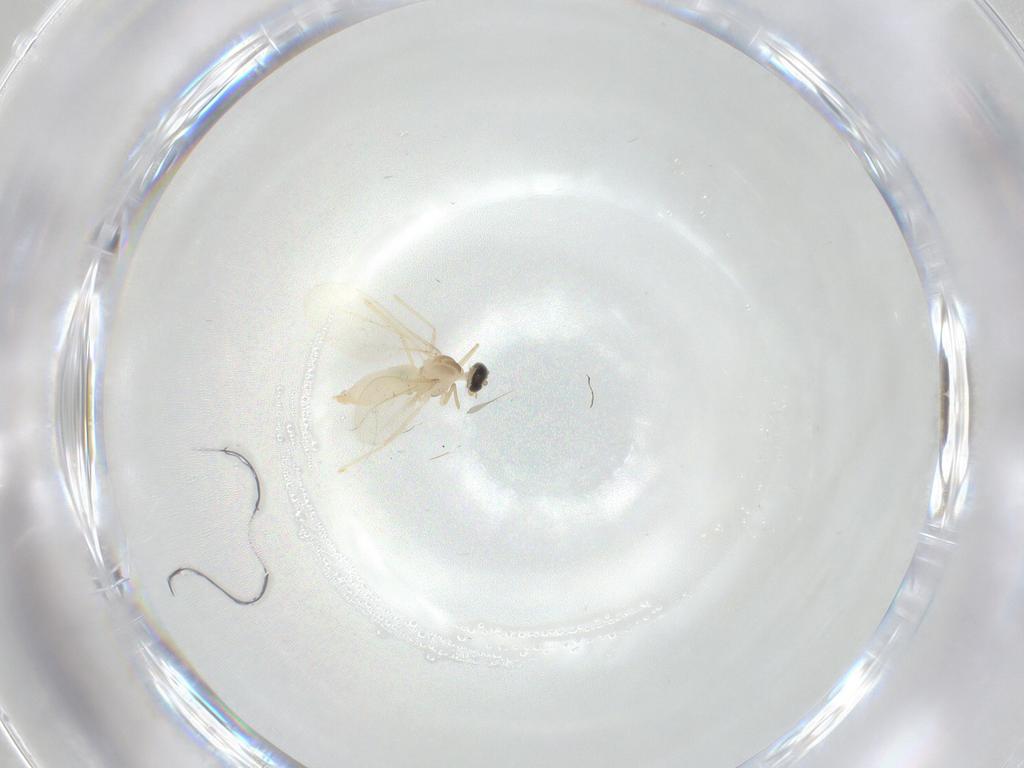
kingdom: Animalia
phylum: Arthropoda
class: Insecta
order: Diptera
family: Cecidomyiidae
